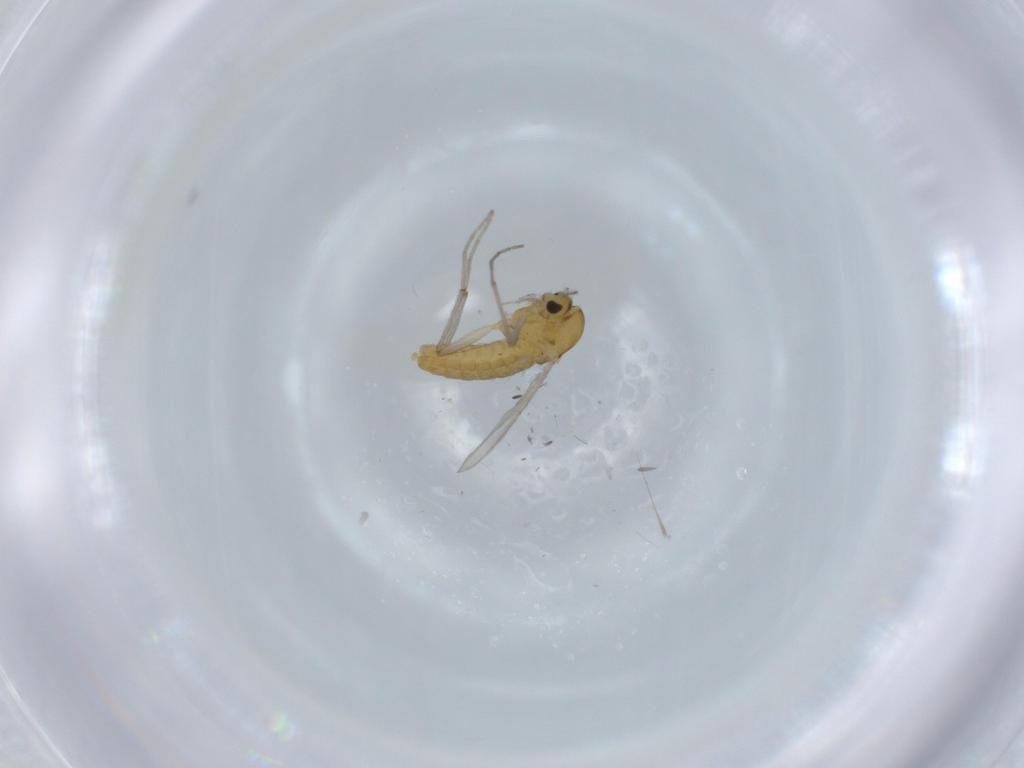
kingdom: Animalia
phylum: Arthropoda
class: Insecta
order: Diptera
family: Chironomidae
